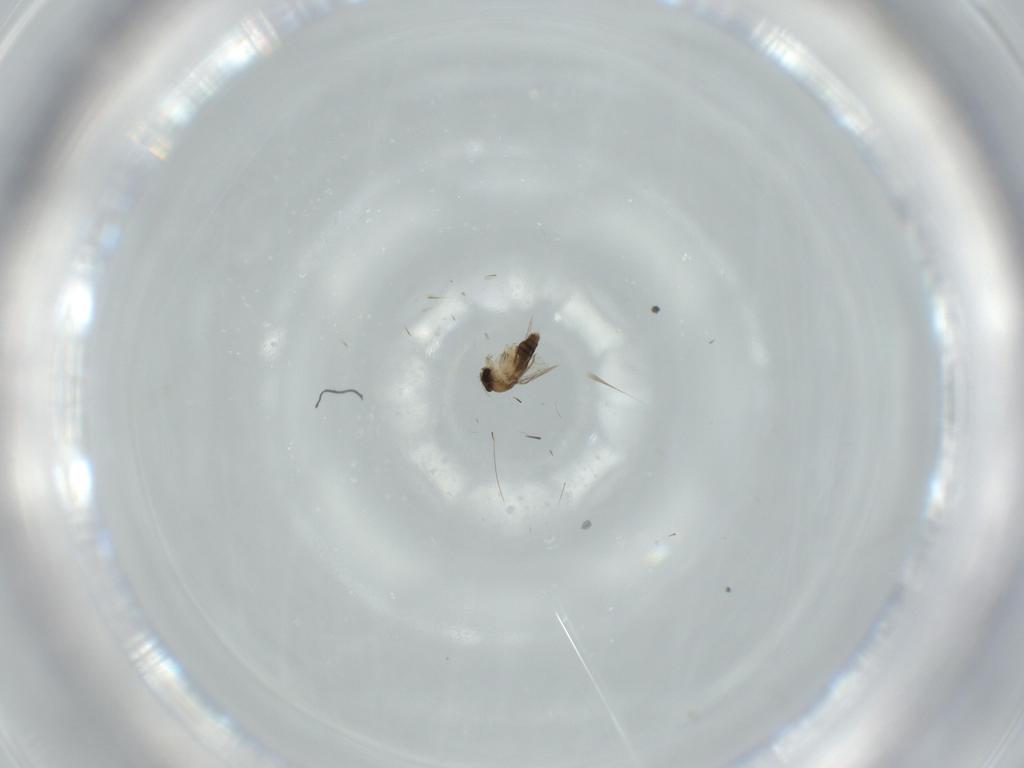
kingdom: Animalia
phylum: Arthropoda
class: Insecta
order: Diptera
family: Phoridae
